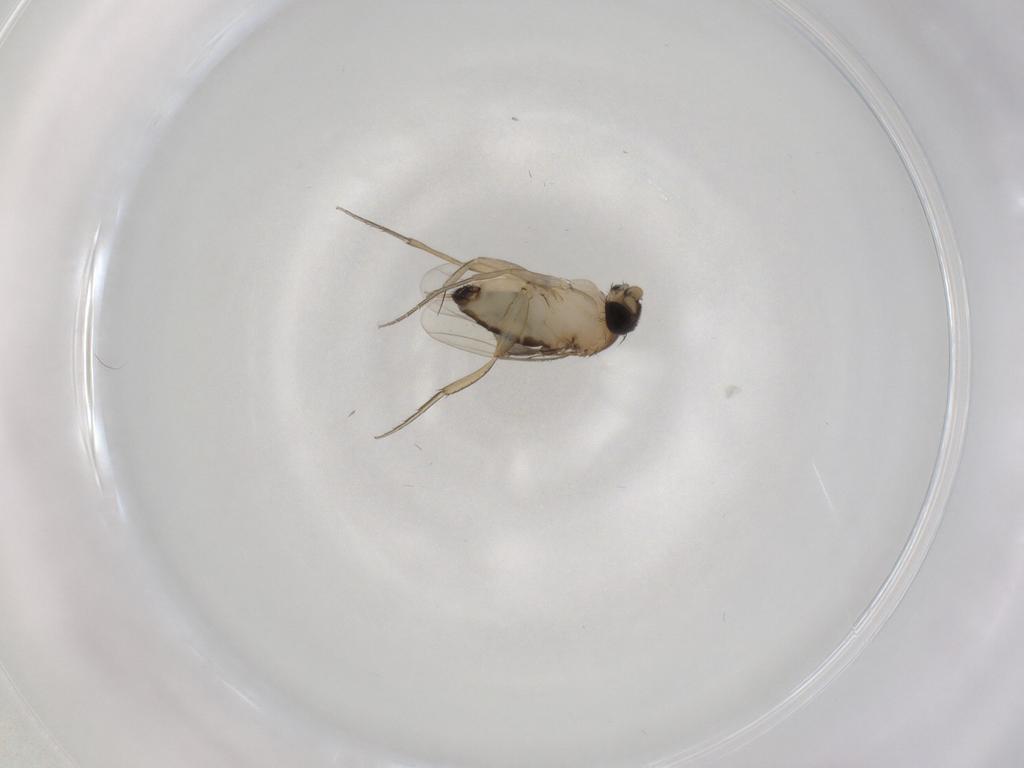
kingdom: Animalia
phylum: Arthropoda
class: Insecta
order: Diptera
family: Phoridae
